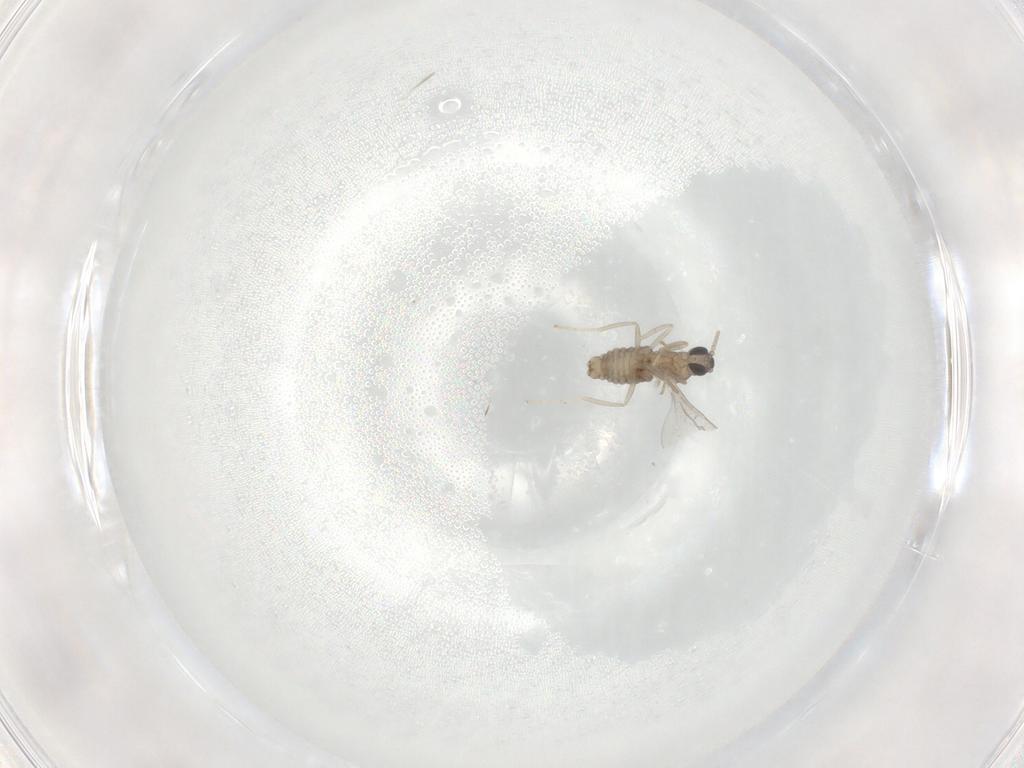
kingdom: Animalia
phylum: Arthropoda
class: Insecta
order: Diptera
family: Cecidomyiidae
